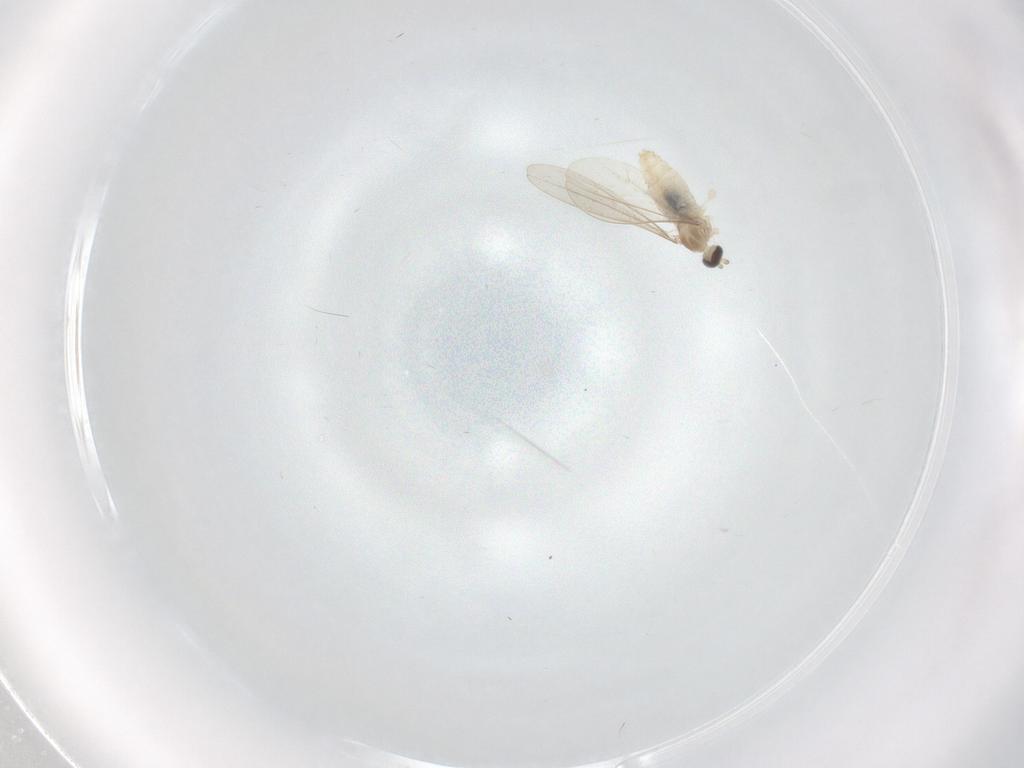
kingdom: Animalia
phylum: Arthropoda
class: Insecta
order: Diptera
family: Cecidomyiidae
